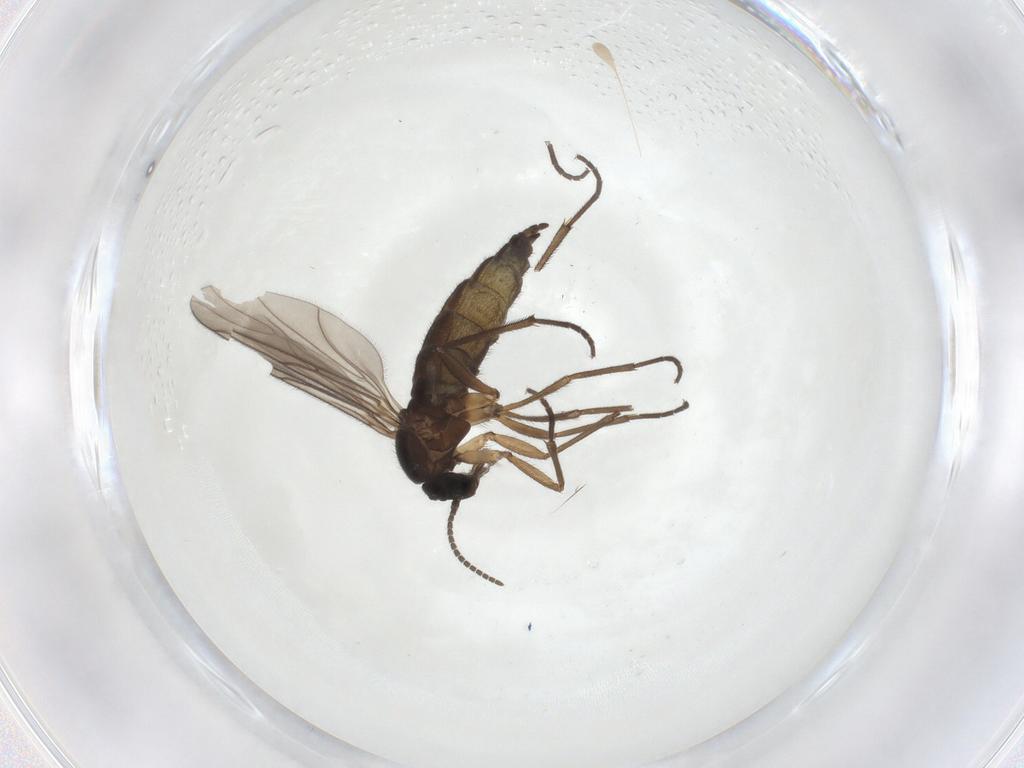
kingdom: Animalia
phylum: Arthropoda
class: Insecta
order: Diptera
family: Sciaridae
